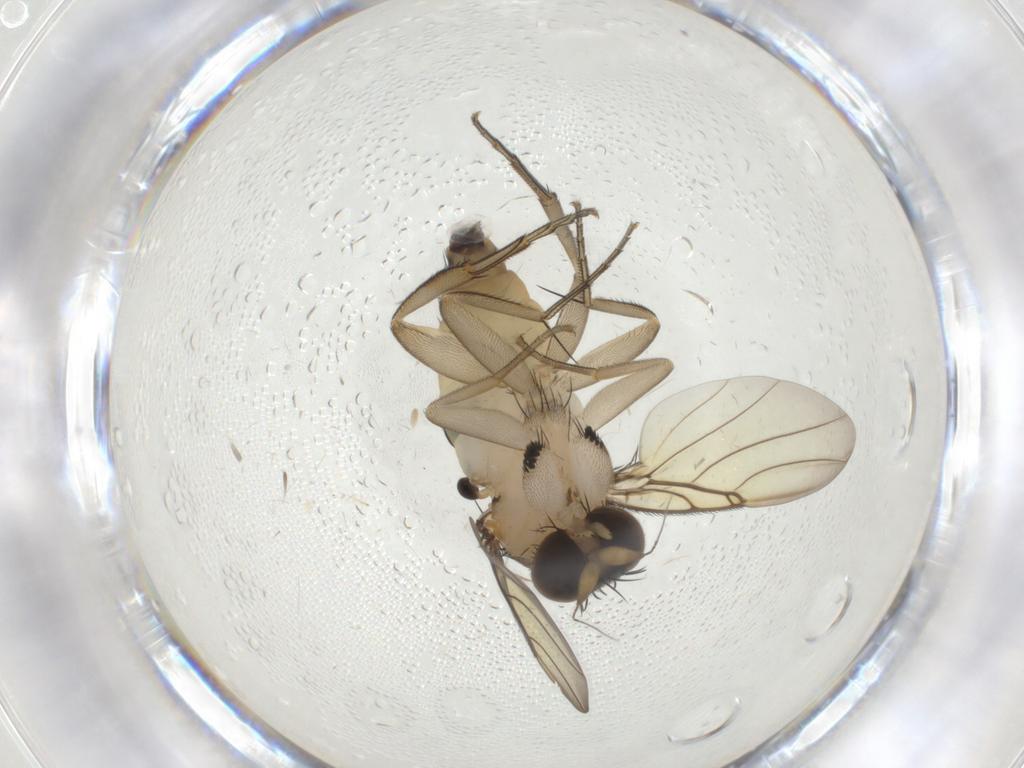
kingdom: Animalia
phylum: Arthropoda
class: Insecta
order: Diptera
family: Phoridae
